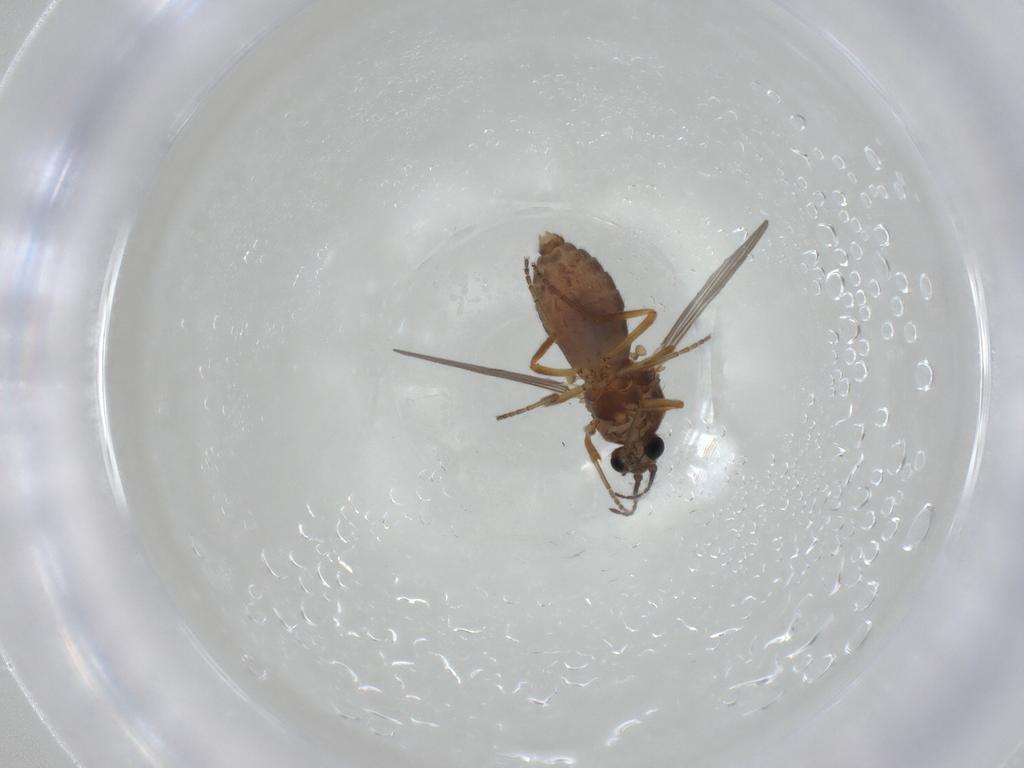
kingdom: Animalia
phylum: Arthropoda
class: Insecta
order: Diptera
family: Ceratopogonidae
